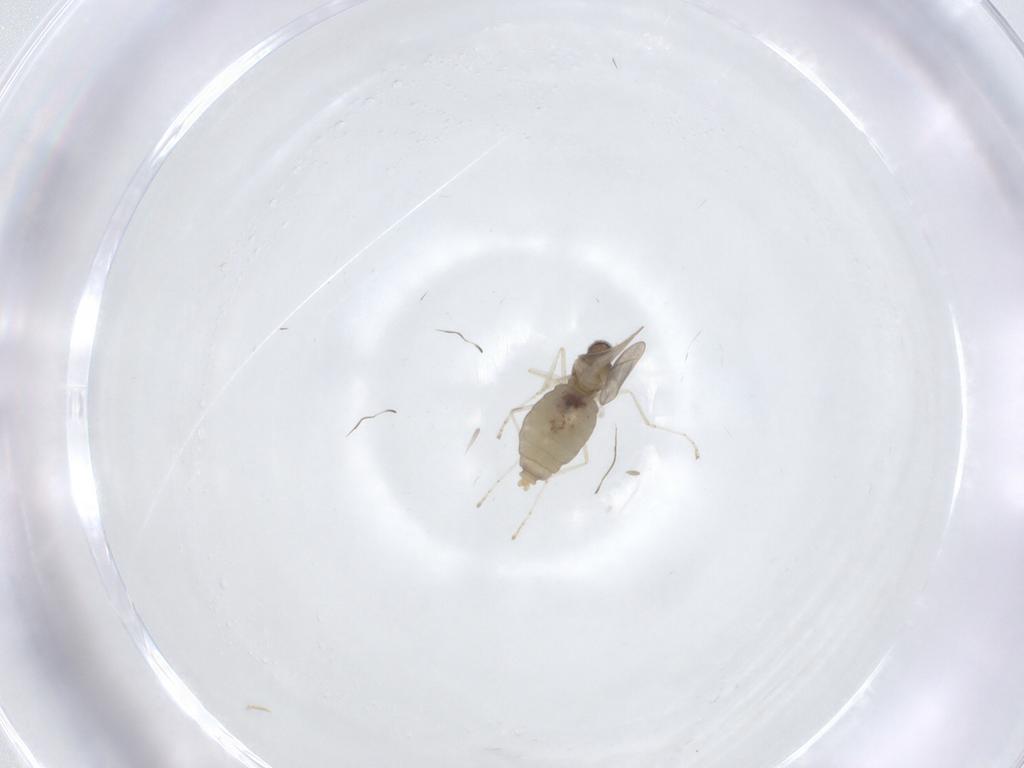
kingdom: Animalia
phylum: Arthropoda
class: Insecta
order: Diptera
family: Cecidomyiidae
